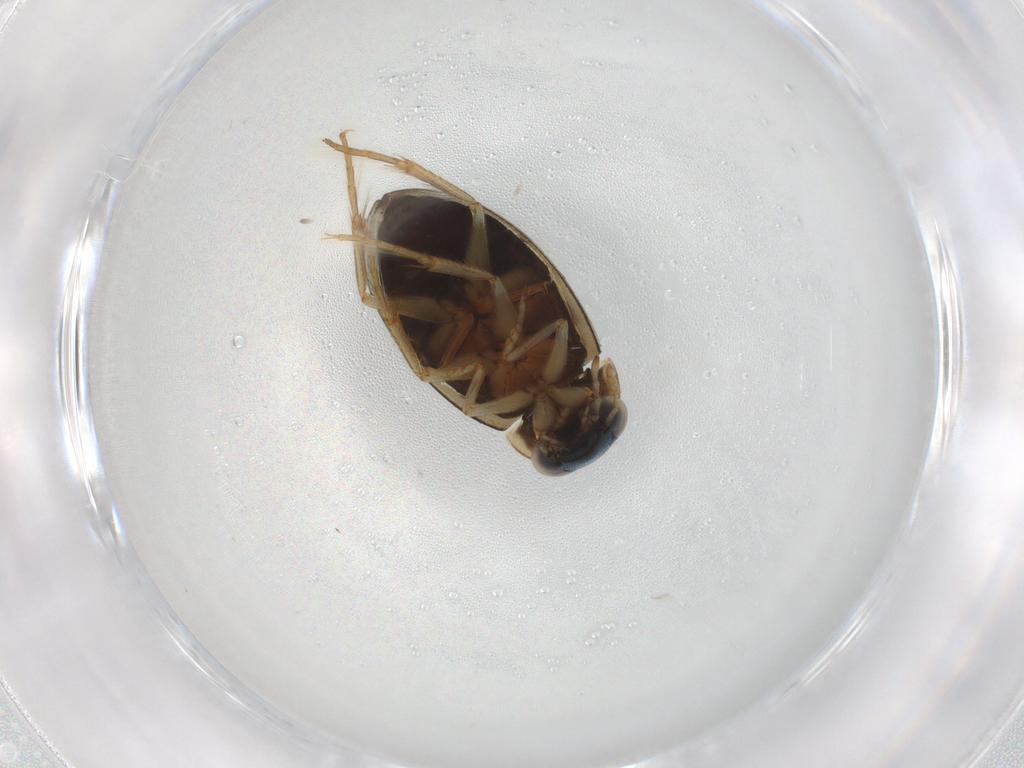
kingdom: Animalia
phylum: Arthropoda
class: Insecta
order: Coleoptera
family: Hydrophilidae
